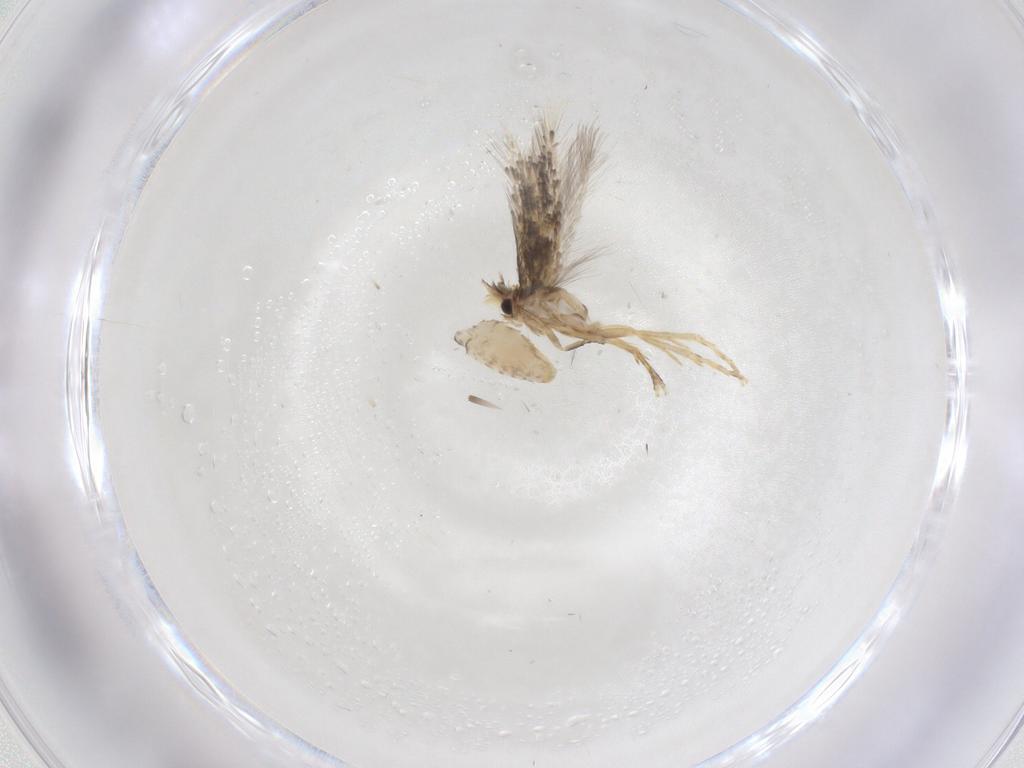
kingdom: Animalia
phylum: Arthropoda
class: Insecta
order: Lepidoptera
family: Nepticulidae
